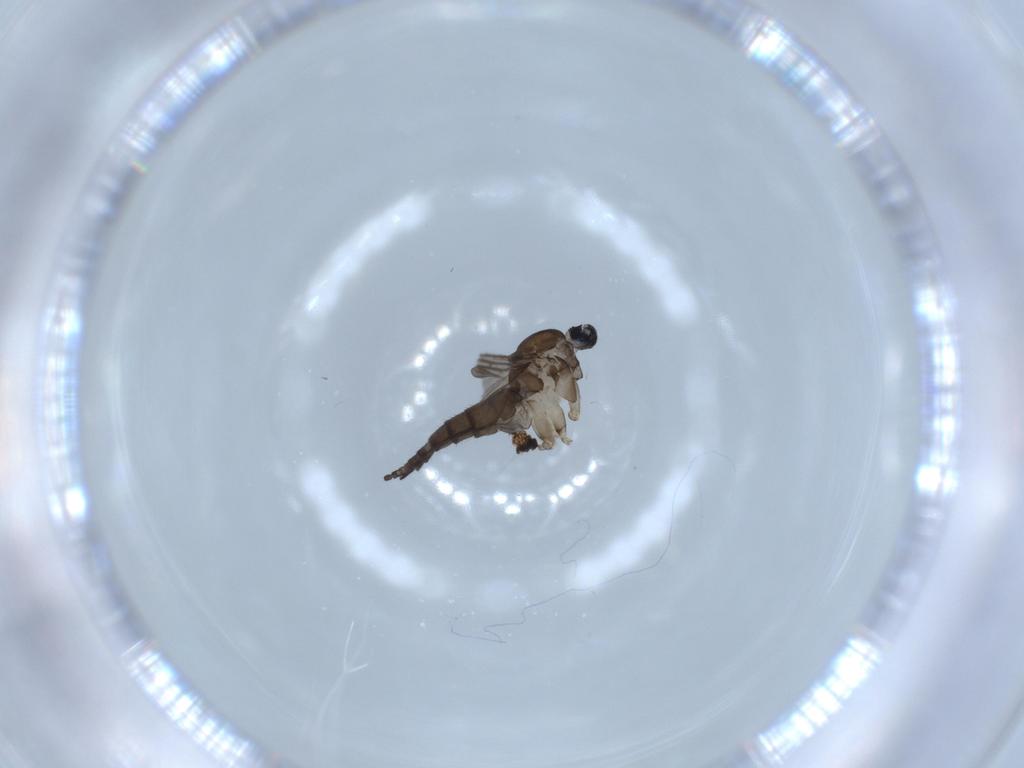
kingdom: Animalia
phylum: Arthropoda
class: Insecta
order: Diptera
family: Sciaridae
